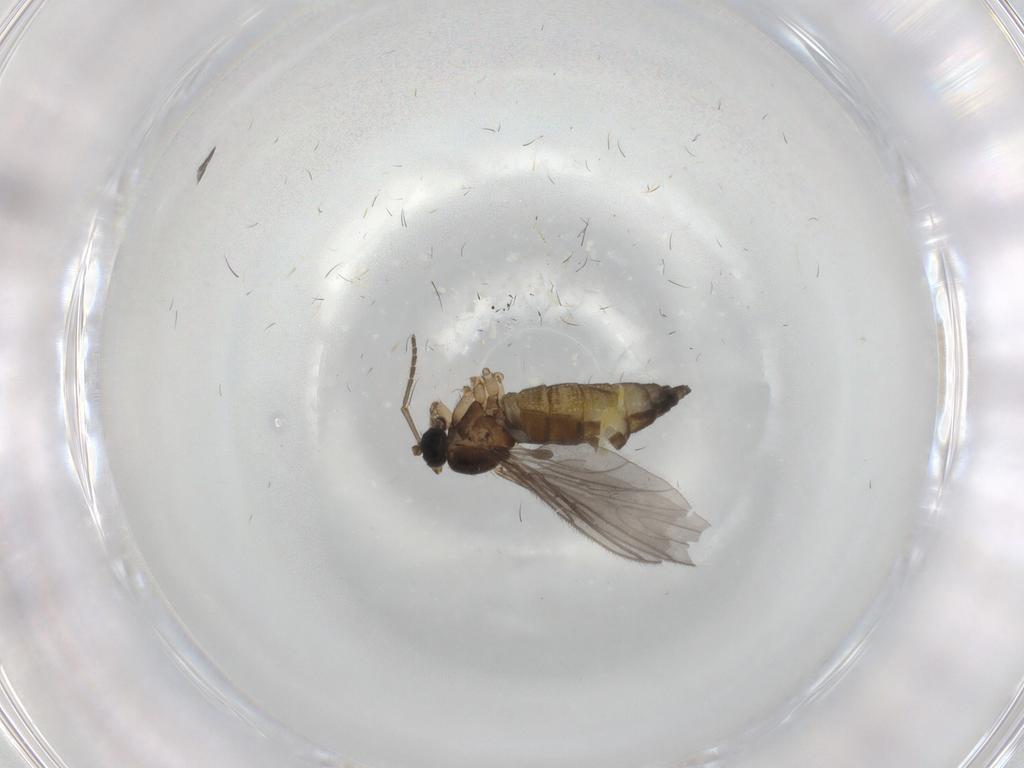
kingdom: Animalia
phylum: Arthropoda
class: Insecta
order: Diptera
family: Sciaridae
